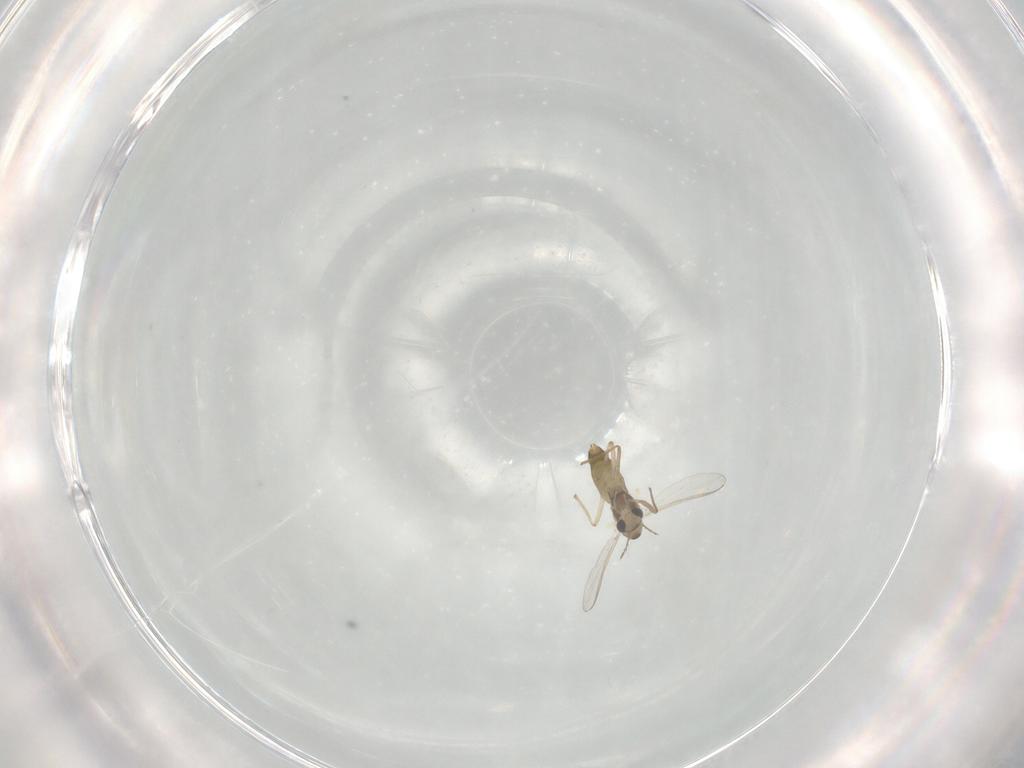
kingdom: Animalia
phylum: Arthropoda
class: Insecta
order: Diptera
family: Chironomidae
